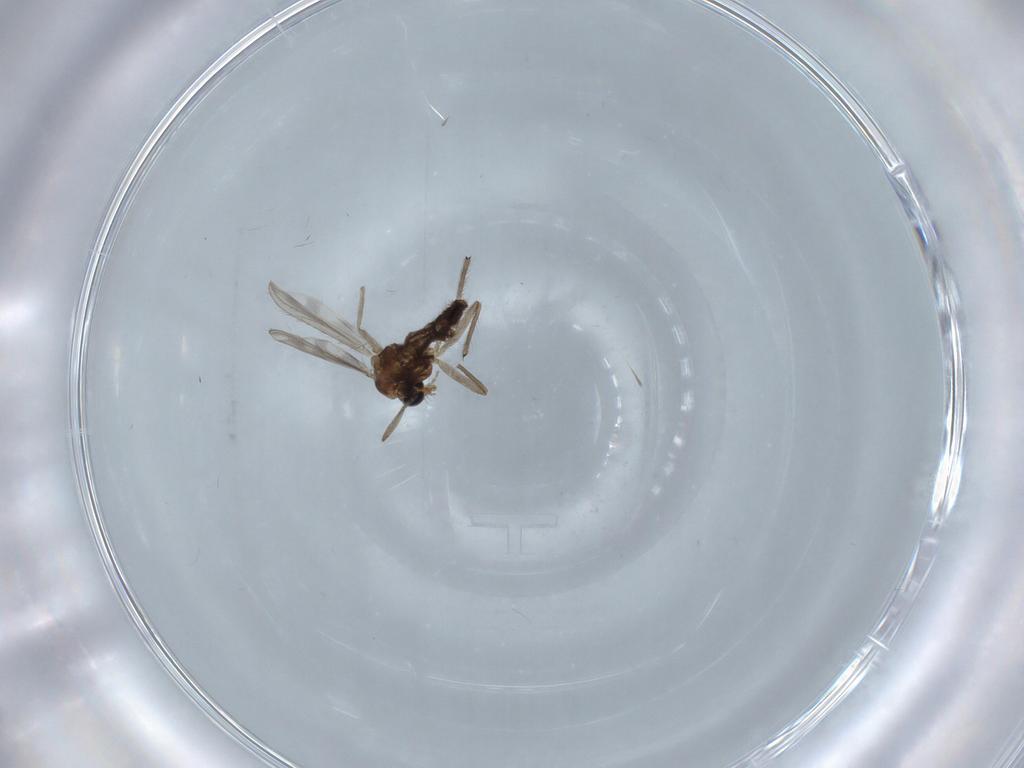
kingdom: Animalia
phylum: Arthropoda
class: Insecta
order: Diptera
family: Chironomidae
